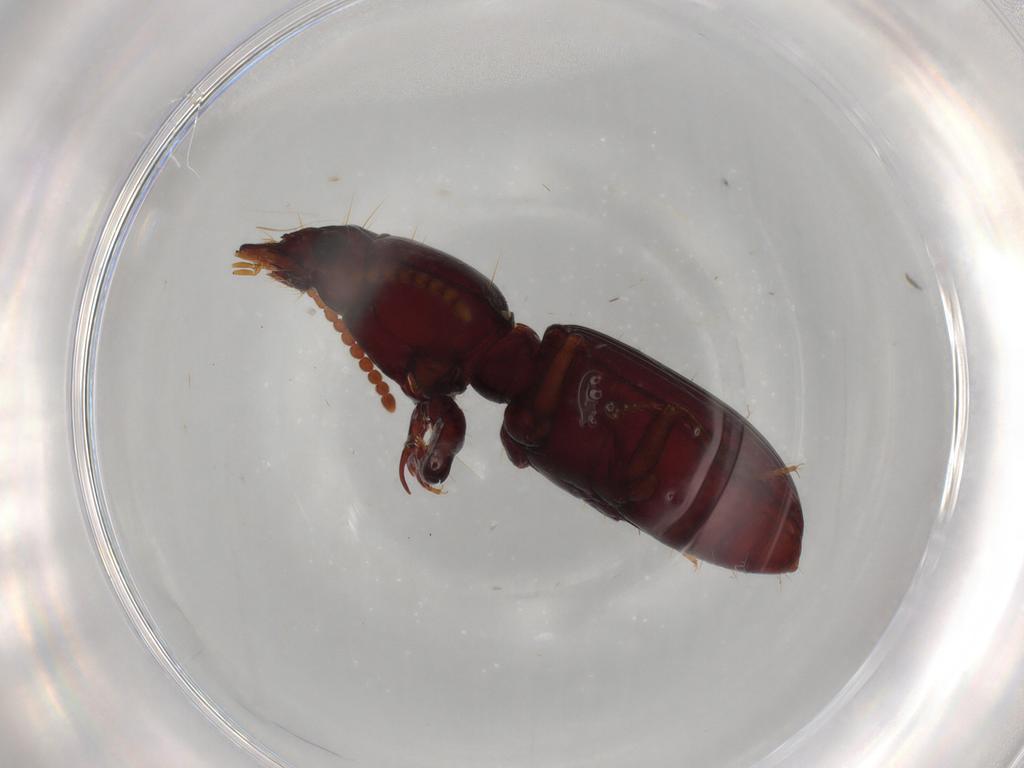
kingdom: Animalia
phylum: Arthropoda
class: Insecta
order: Coleoptera
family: Carabidae
